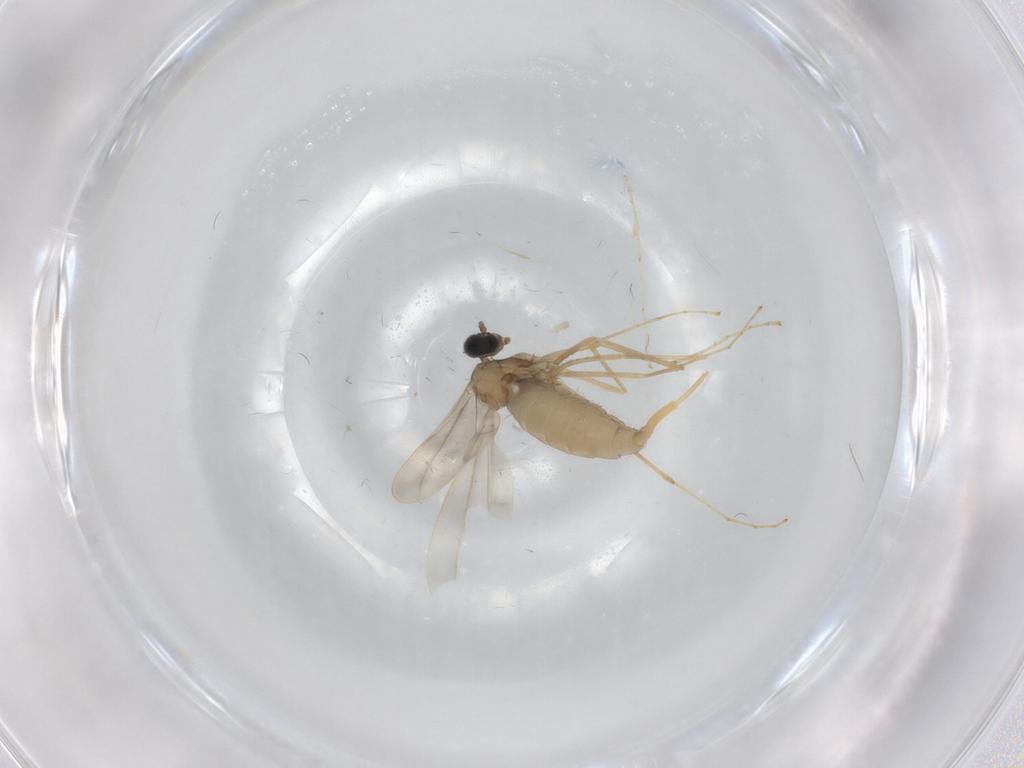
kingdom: Animalia
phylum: Arthropoda
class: Insecta
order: Diptera
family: Cecidomyiidae
